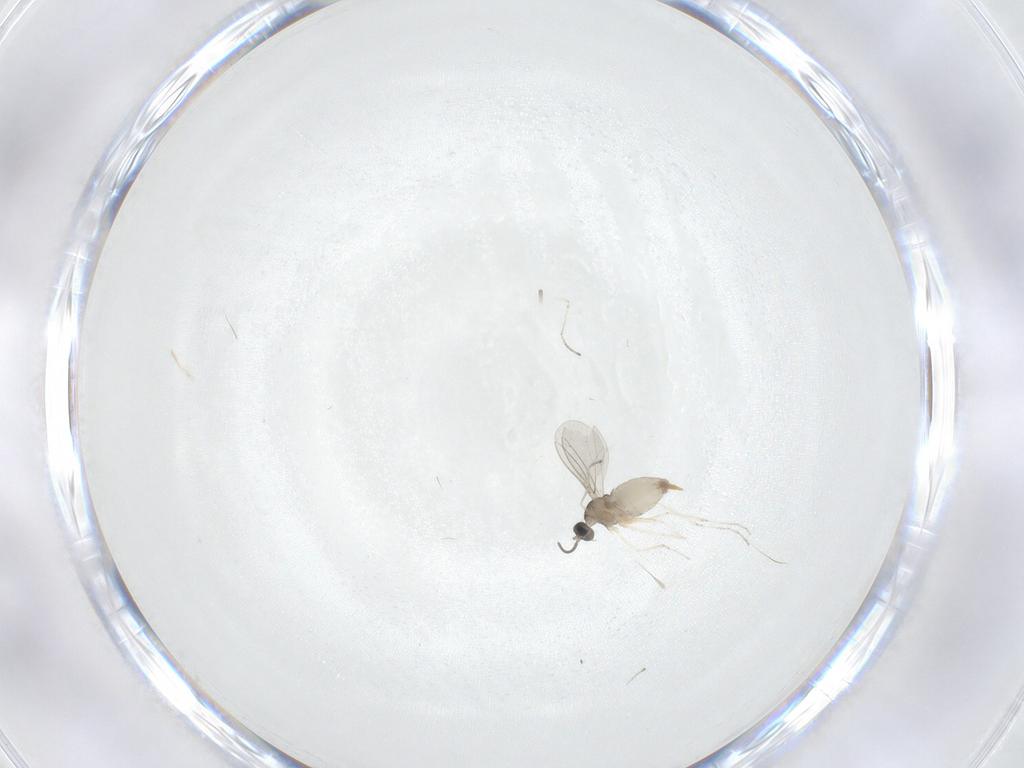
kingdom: Animalia
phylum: Arthropoda
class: Insecta
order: Diptera
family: Cecidomyiidae
